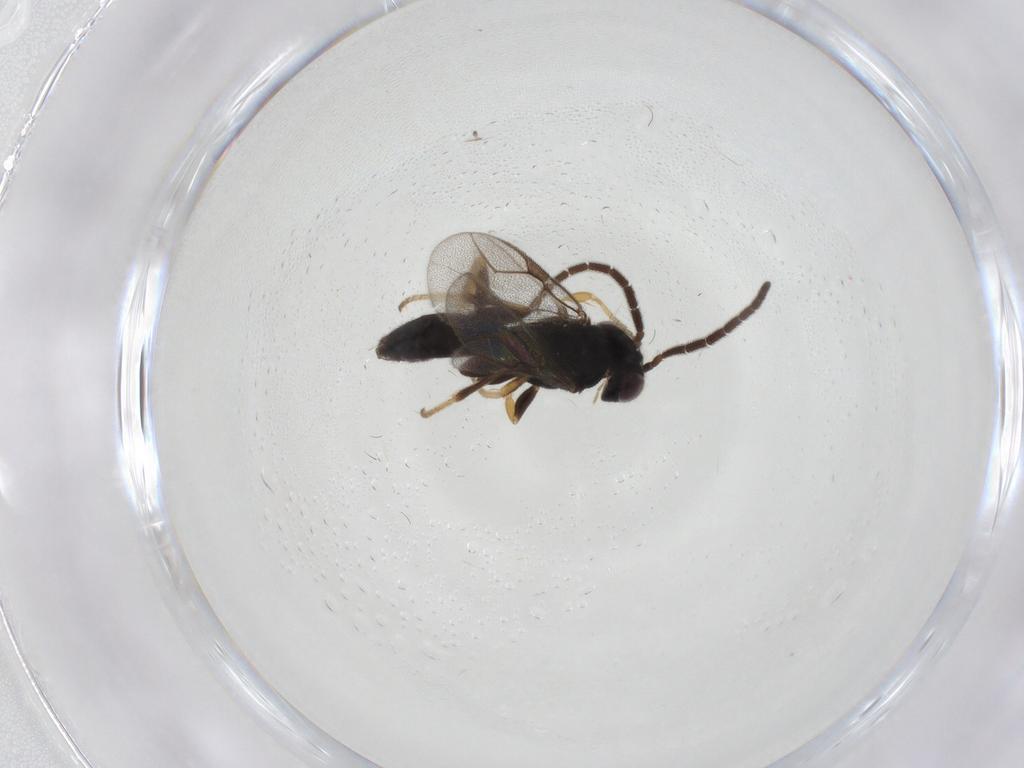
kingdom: Animalia
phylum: Arthropoda
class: Insecta
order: Hymenoptera
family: Dryinidae
